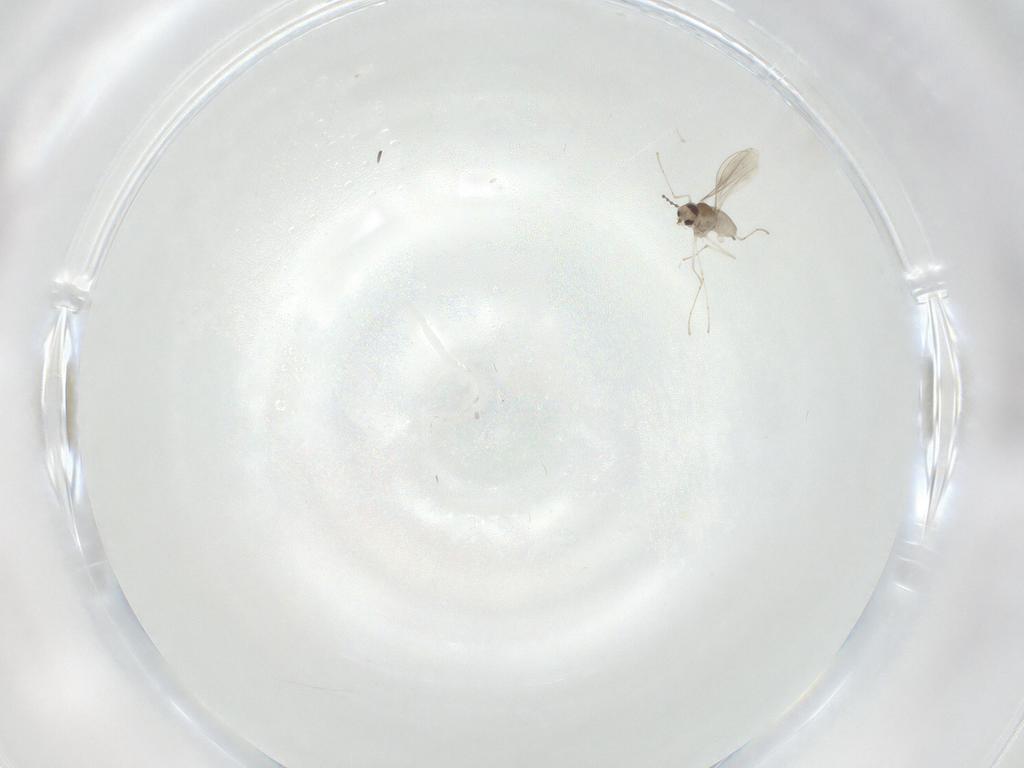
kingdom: Animalia
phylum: Arthropoda
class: Insecta
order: Diptera
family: Cecidomyiidae
